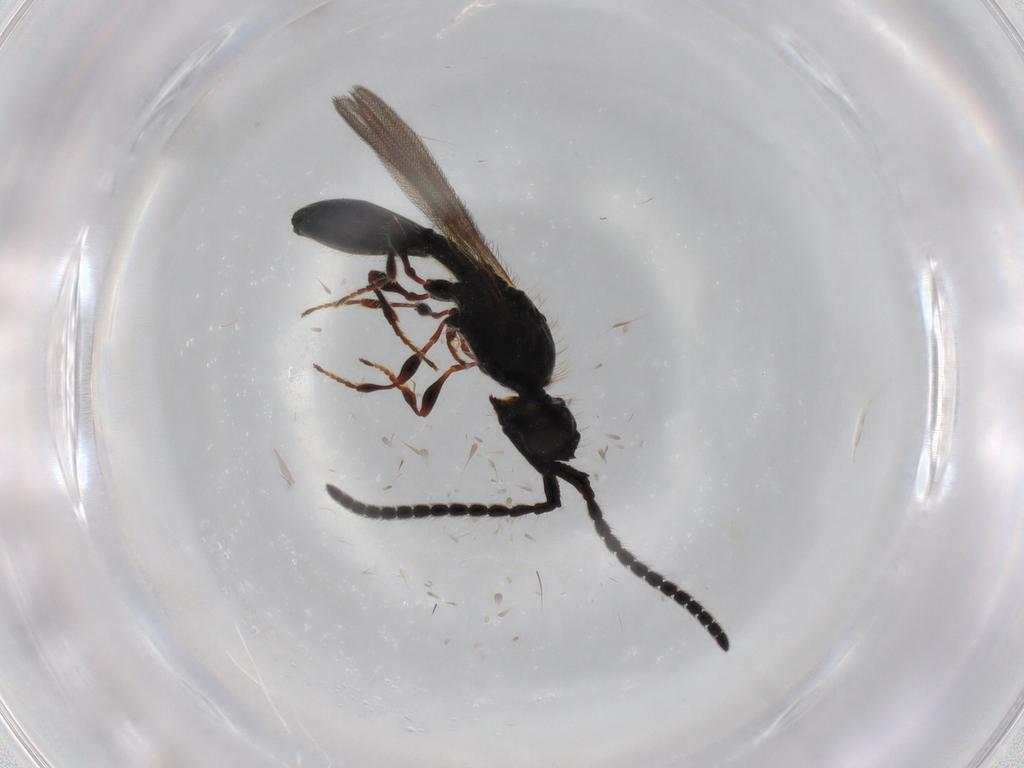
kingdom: Animalia
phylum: Arthropoda
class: Insecta
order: Hymenoptera
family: Diapriidae
